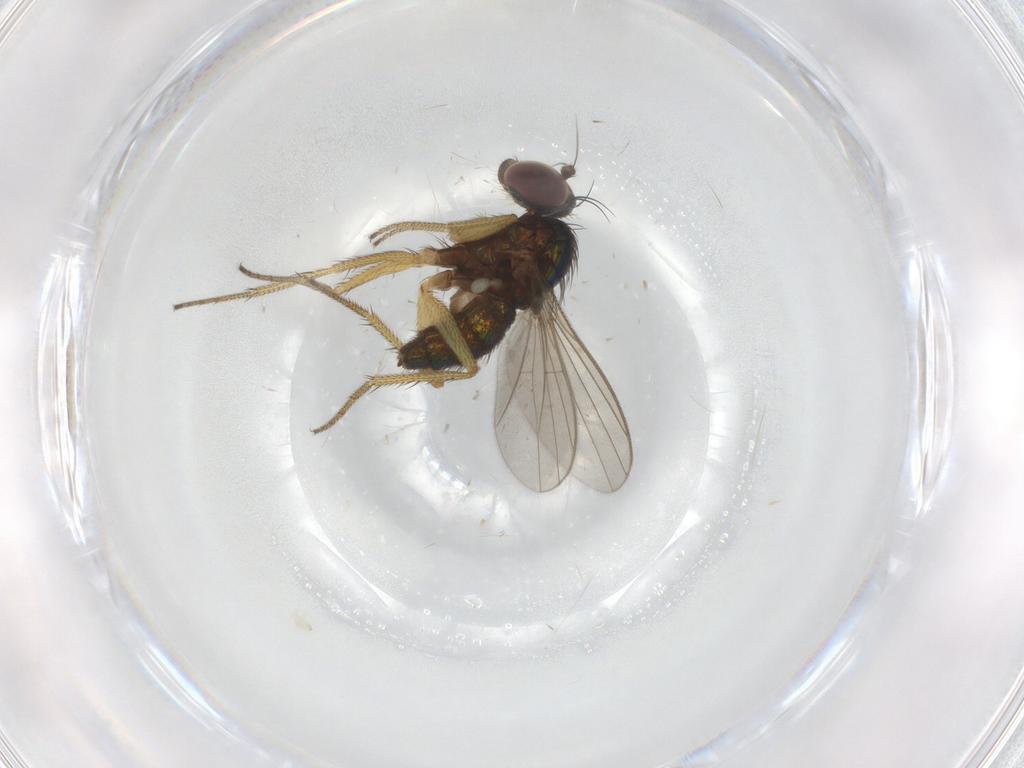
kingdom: Animalia
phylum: Arthropoda
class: Insecta
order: Diptera
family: Dolichopodidae
